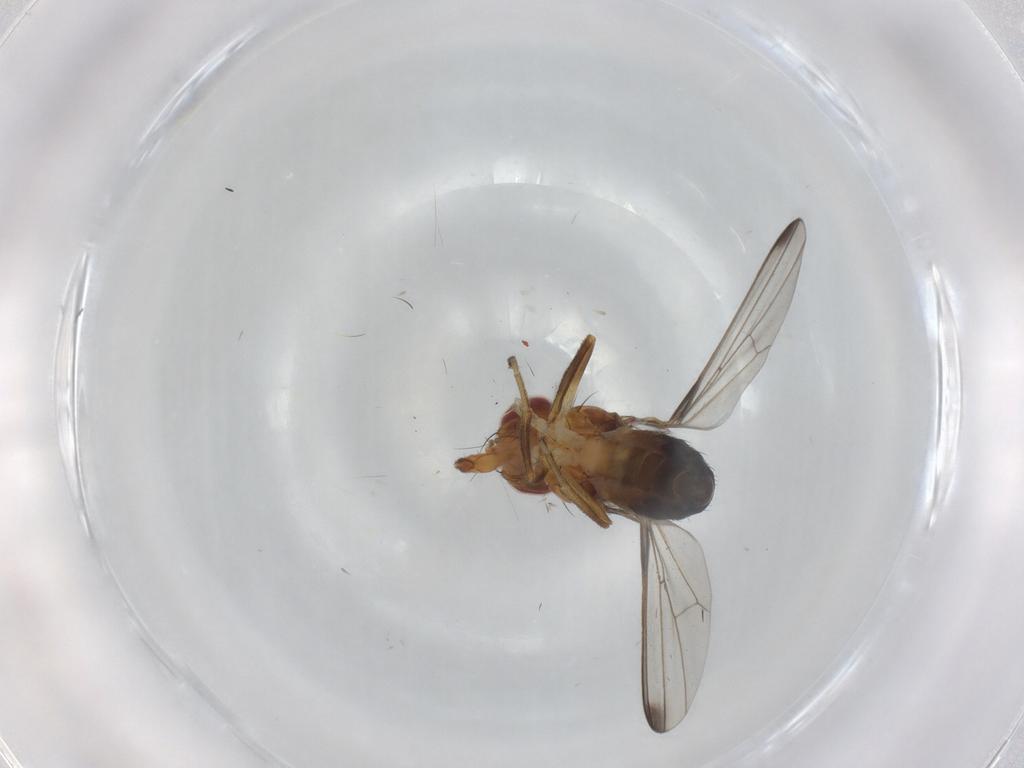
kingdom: Animalia
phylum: Arthropoda
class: Insecta
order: Diptera
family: Piophilidae
